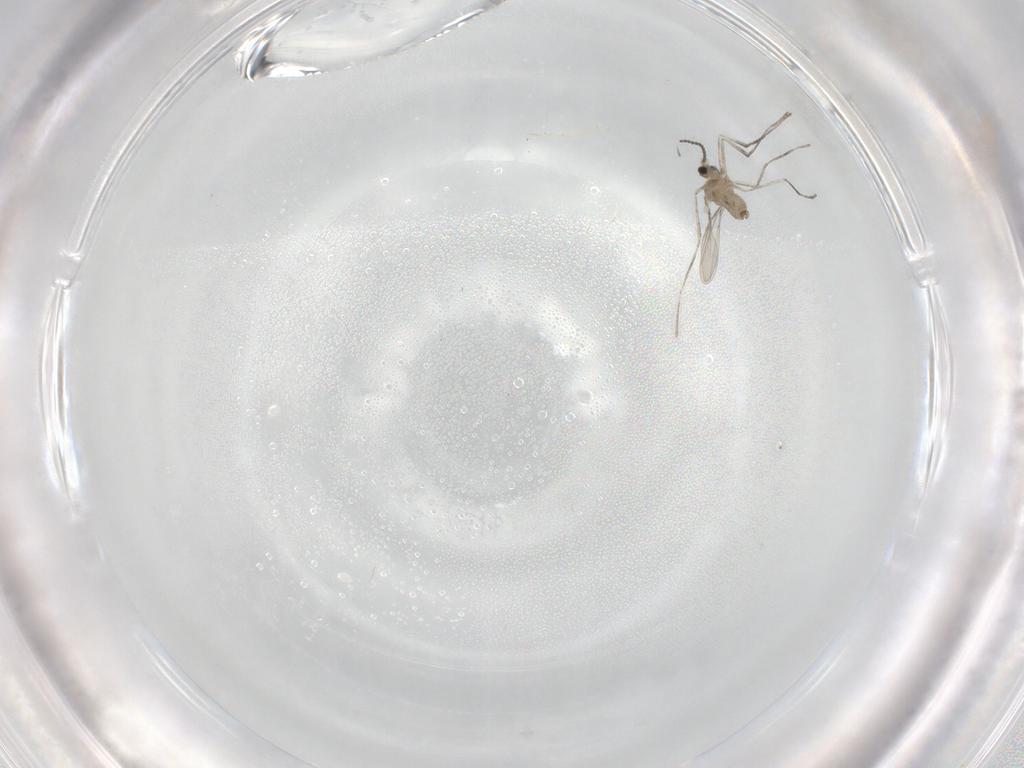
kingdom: Animalia
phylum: Arthropoda
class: Insecta
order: Diptera
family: Cecidomyiidae
